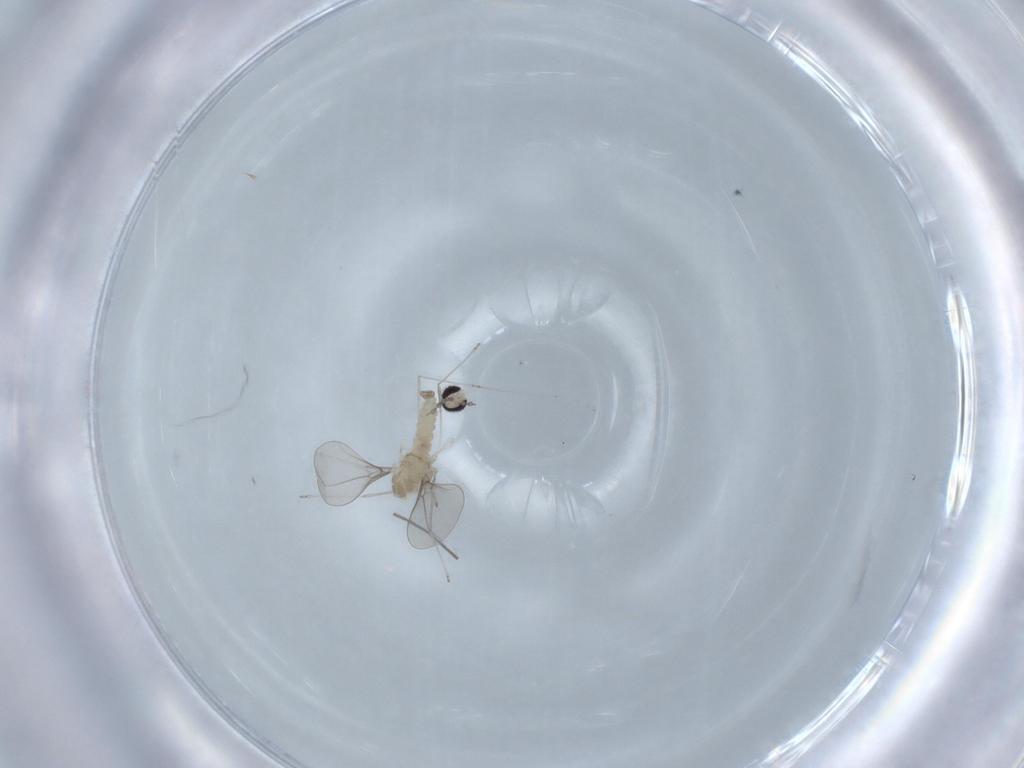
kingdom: Animalia
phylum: Arthropoda
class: Insecta
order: Diptera
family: Cecidomyiidae
